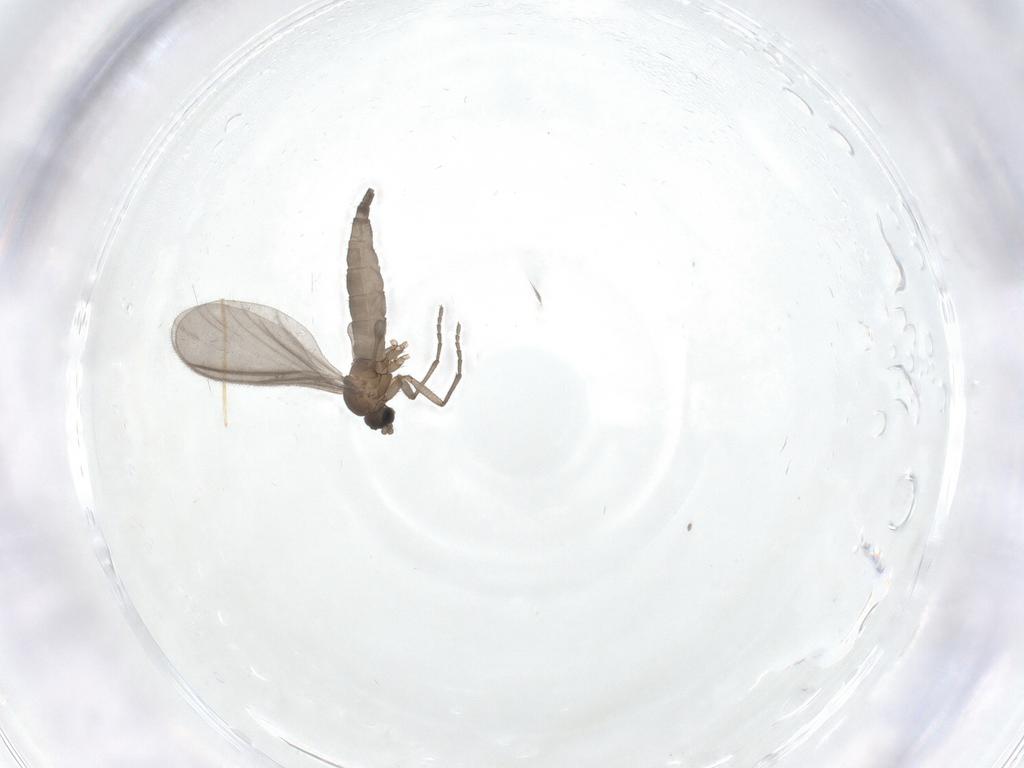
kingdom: Animalia
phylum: Arthropoda
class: Insecta
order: Diptera
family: Sciaridae
